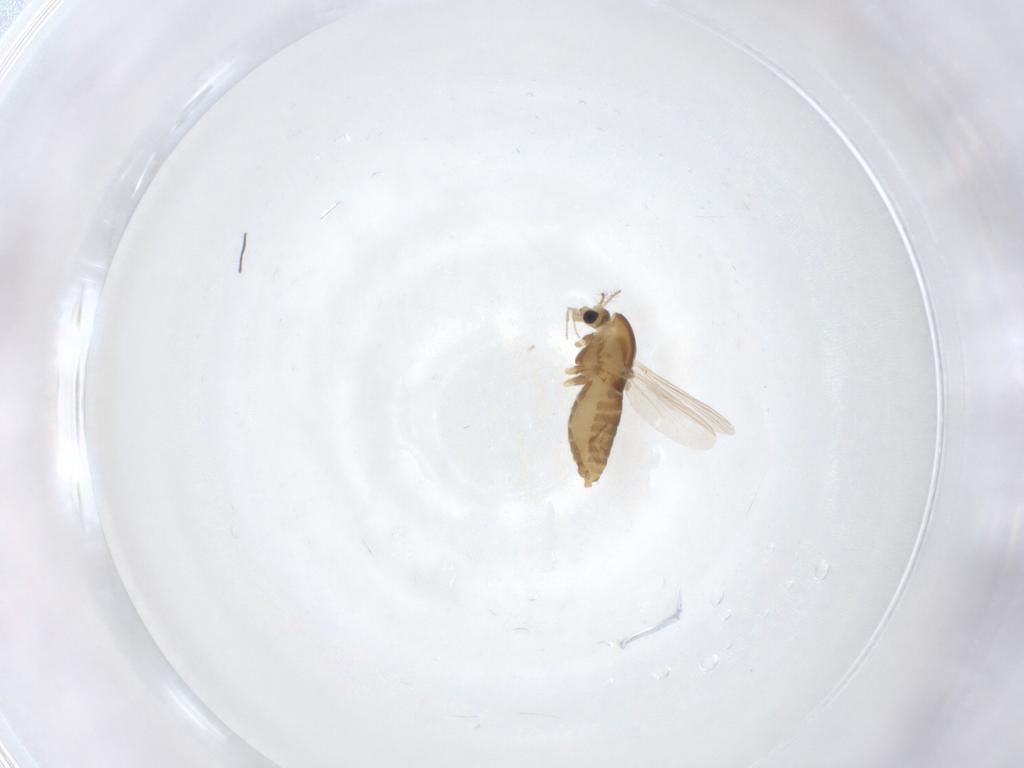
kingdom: Animalia
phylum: Arthropoda
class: Insecta
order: Diptera
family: Chironomidae
